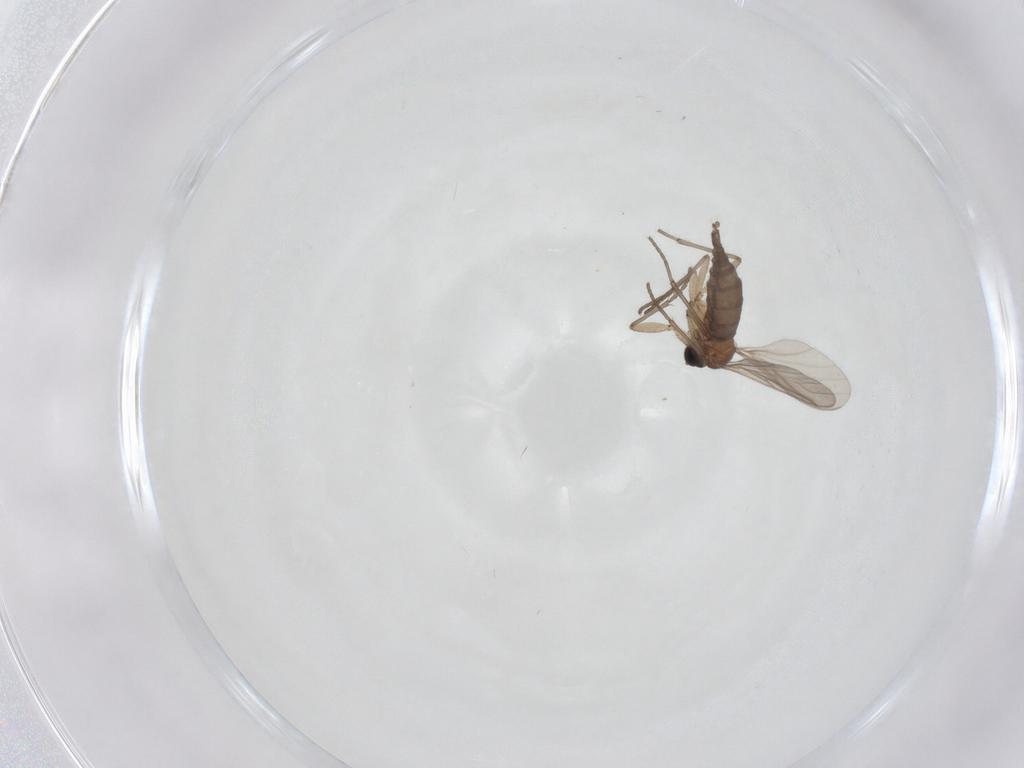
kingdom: Animalia
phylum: Arthropoda
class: Insecta
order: Diptera
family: Sciaridae
